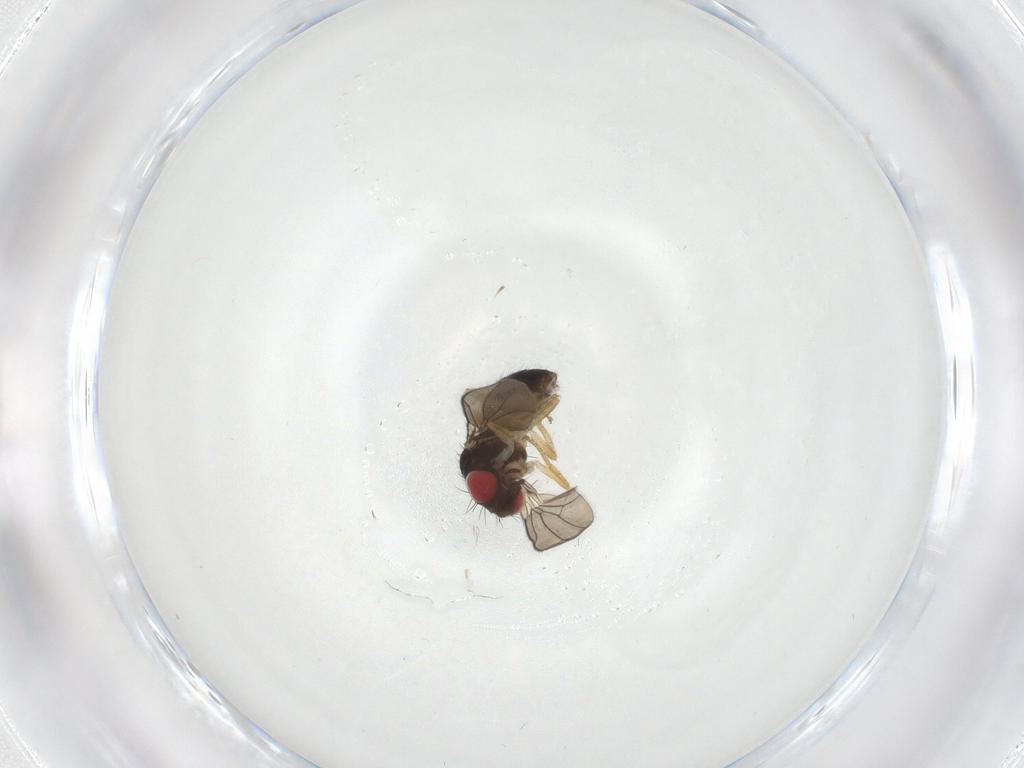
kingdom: Animalia
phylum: Arthropoda
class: Insecta
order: Diptera
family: Drosophilidae
